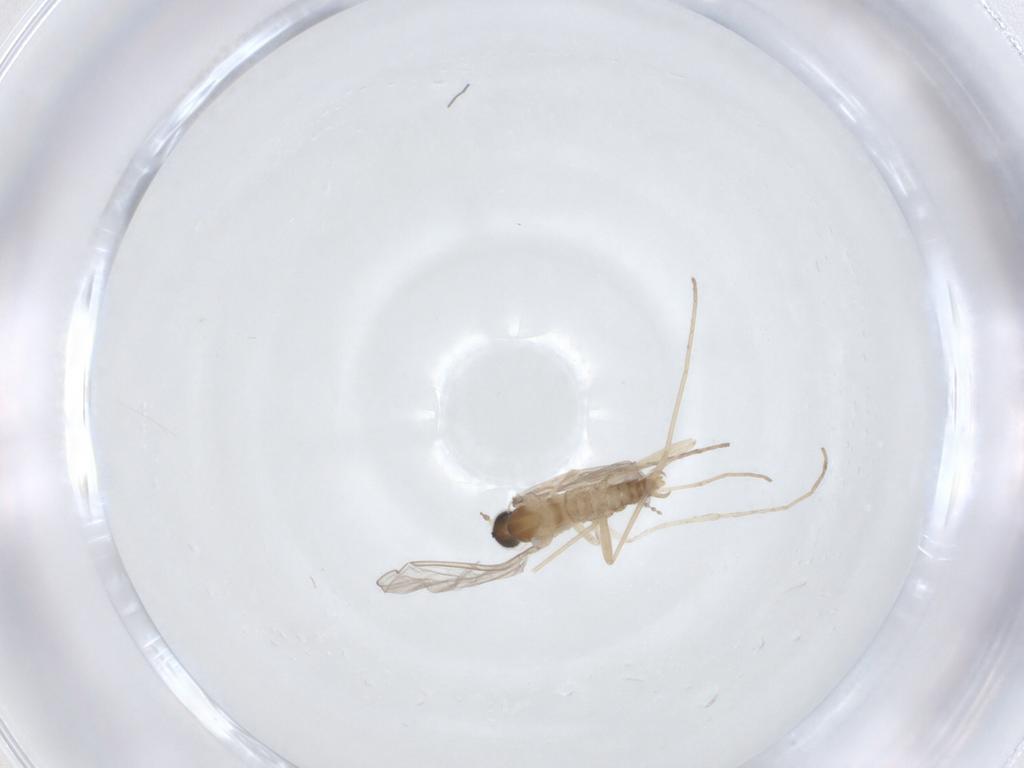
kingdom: Animalia
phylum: Arthropoda
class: Insecta
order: Diptera
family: Cecidomyiidae
